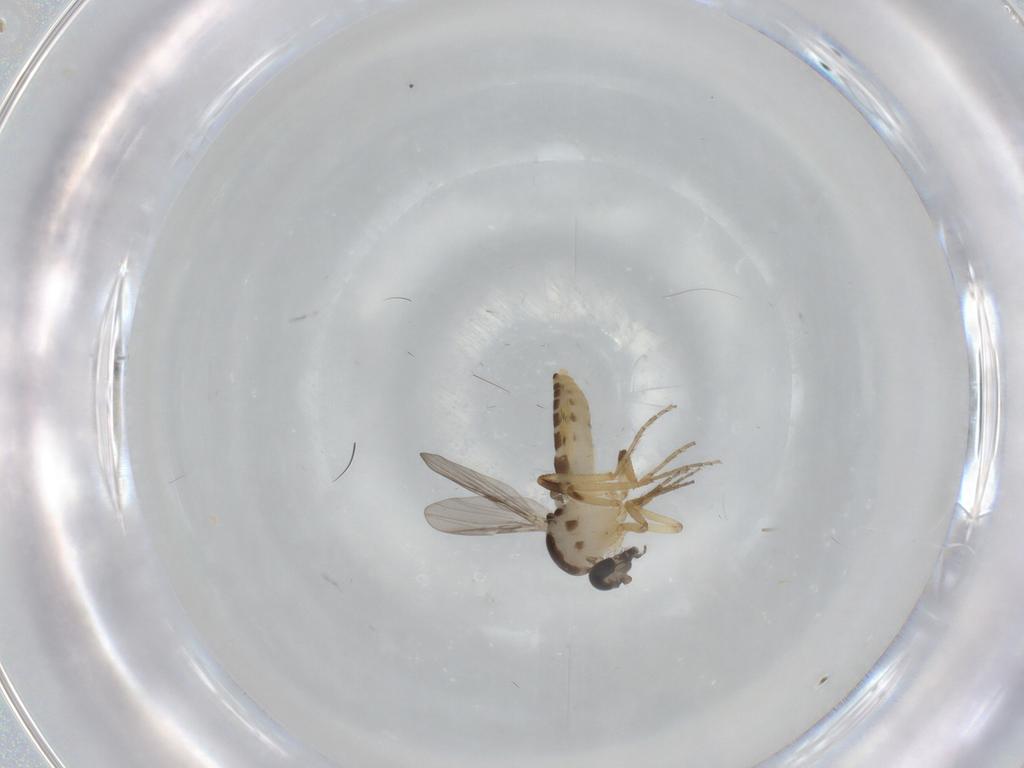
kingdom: Animalia
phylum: Arthropoda
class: Insecta
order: Diptera
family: Ceratopogonidae
